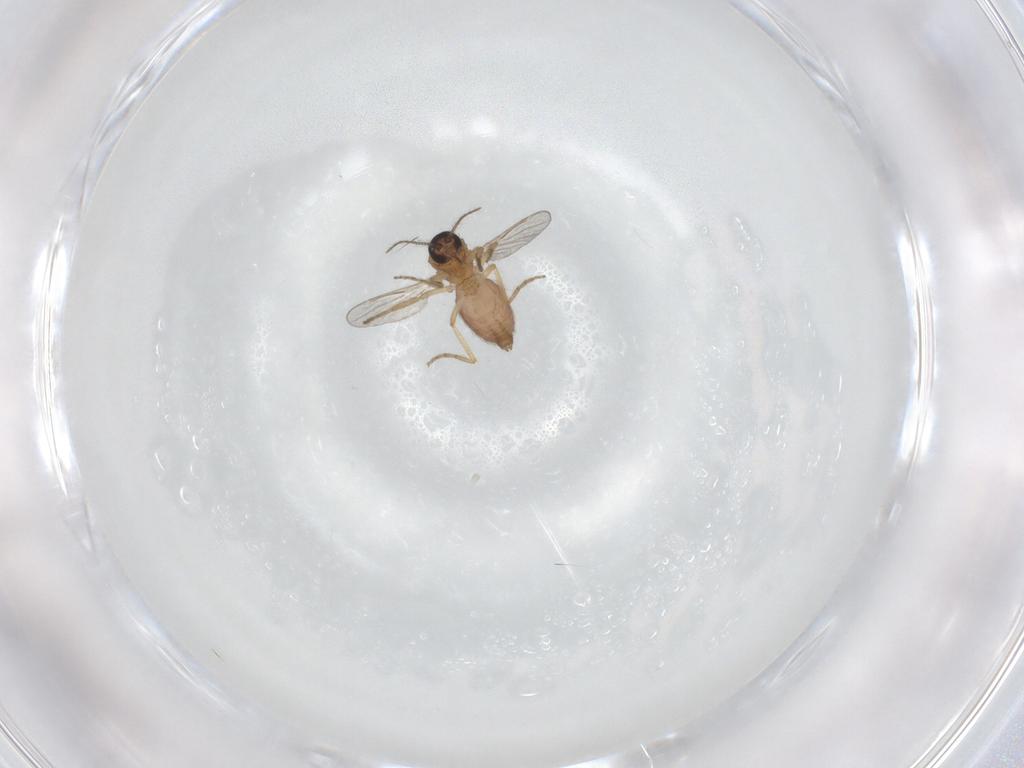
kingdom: Animalia
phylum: Arthropoda
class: Insecta
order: Diptera
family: Ceratopogonidae
